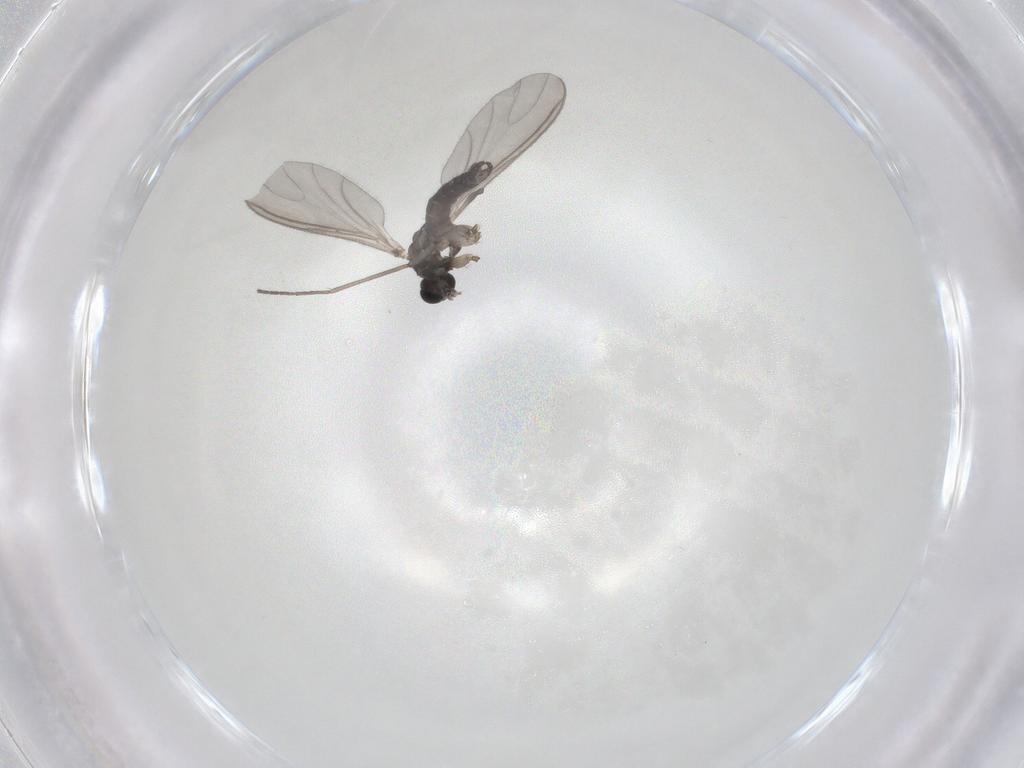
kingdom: Animalia
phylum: Arthropoda
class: Insecta
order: Diptera
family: Sciaridae
